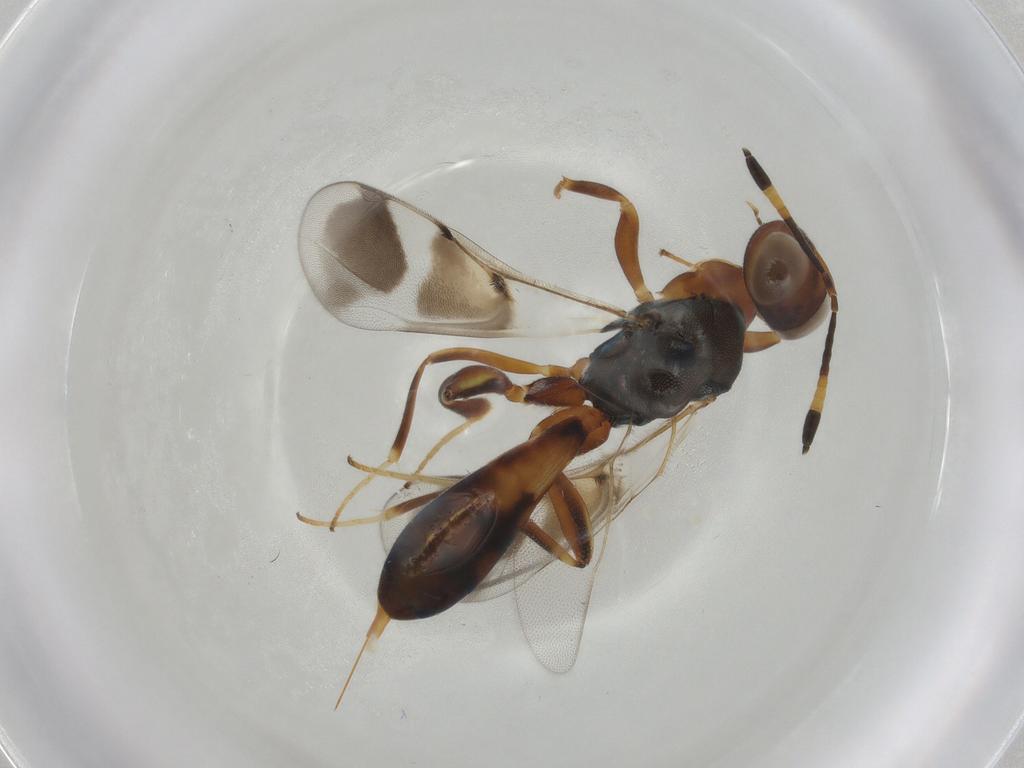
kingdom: Animalia
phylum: Arthropoda
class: Insecta
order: Hymenoptera
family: Eupelmidae
